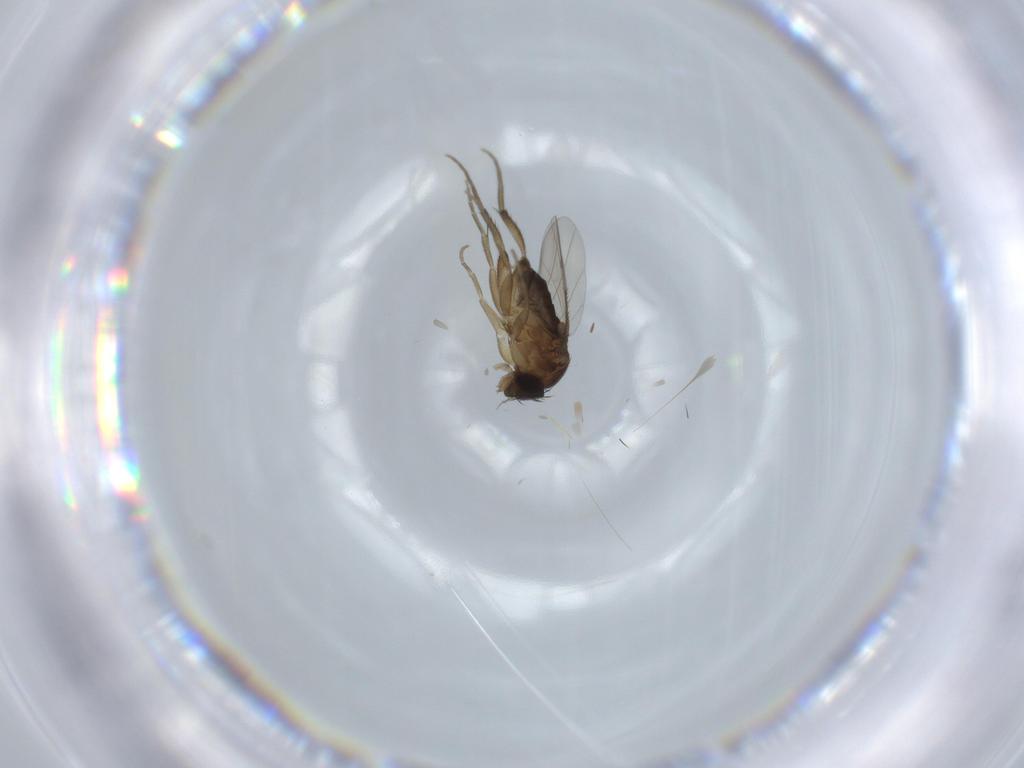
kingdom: Animalia
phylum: Arthropoda
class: Insecta
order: Diptera
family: Phoridae
